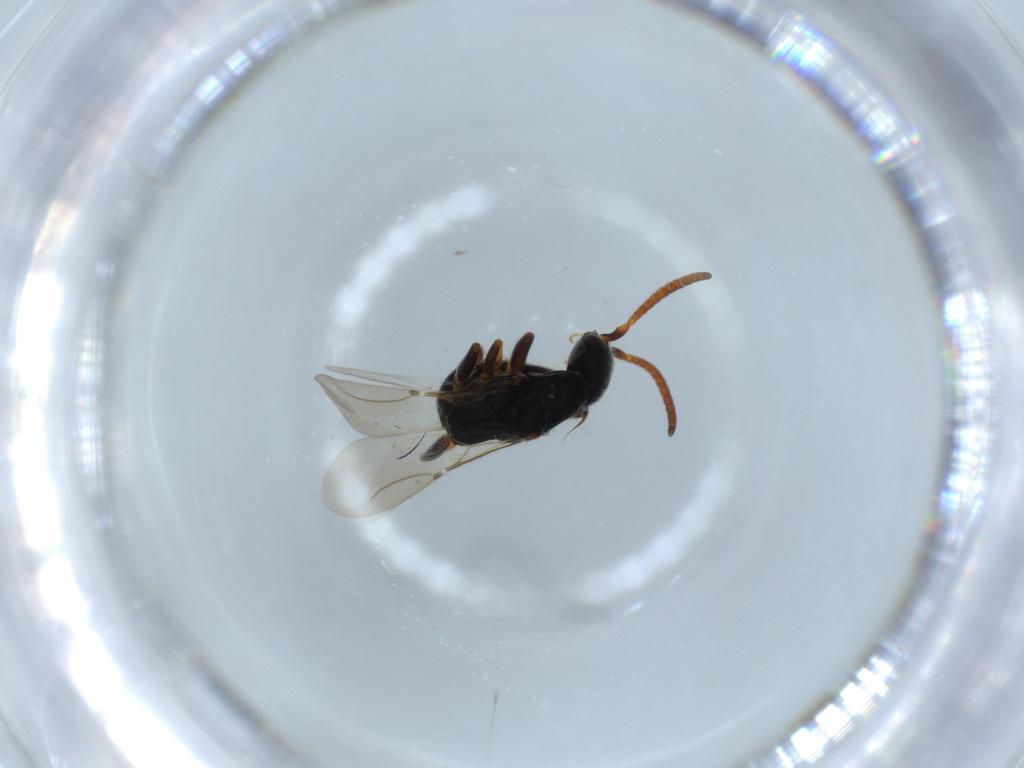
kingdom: Animalia
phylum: Arthropoda
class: Insecta
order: Hymenoptera
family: Bethylidae
